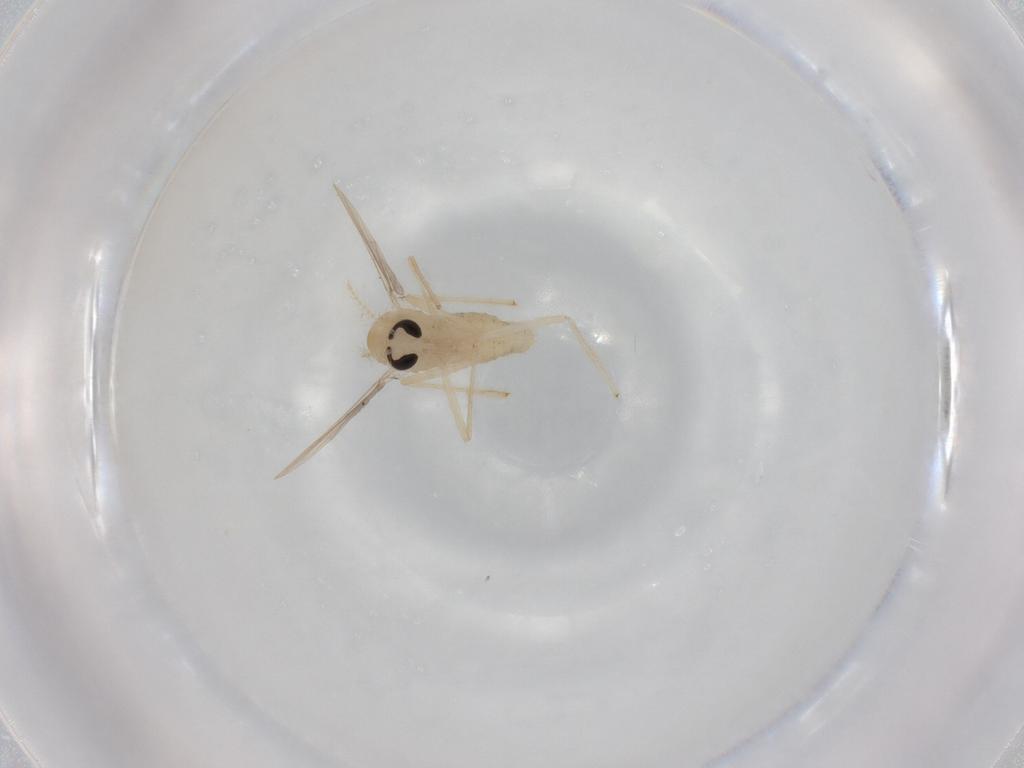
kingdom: Animalia
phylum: Arthropoda
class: Insecta
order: Diptera
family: Chironomidae
